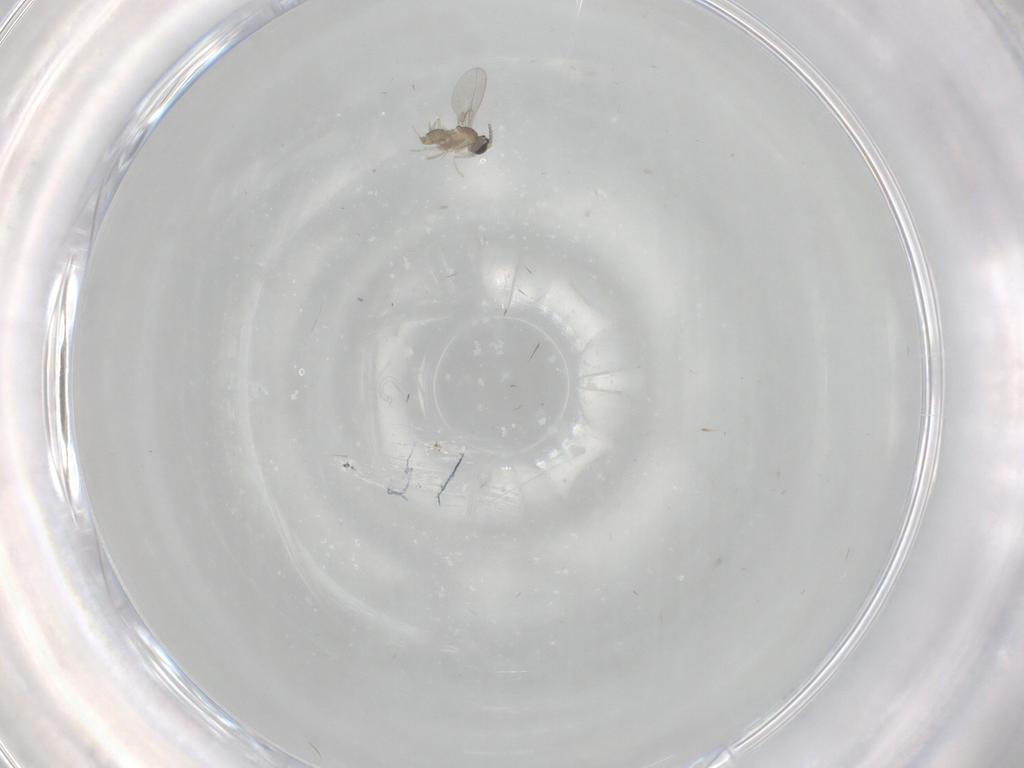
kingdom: Animalia
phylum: Arthropoda
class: Insecta
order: Diptera
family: Cecidomyiidae
